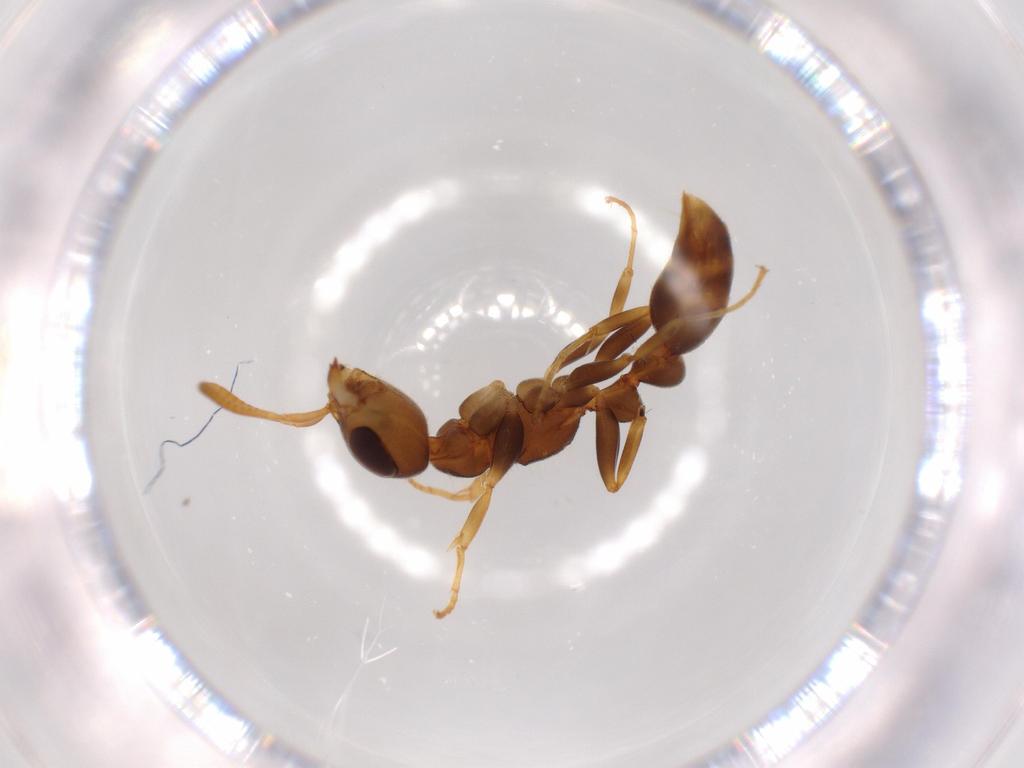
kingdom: Animalia
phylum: Arthropoda
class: Insecta
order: Hymenoptera
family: Formicidae
